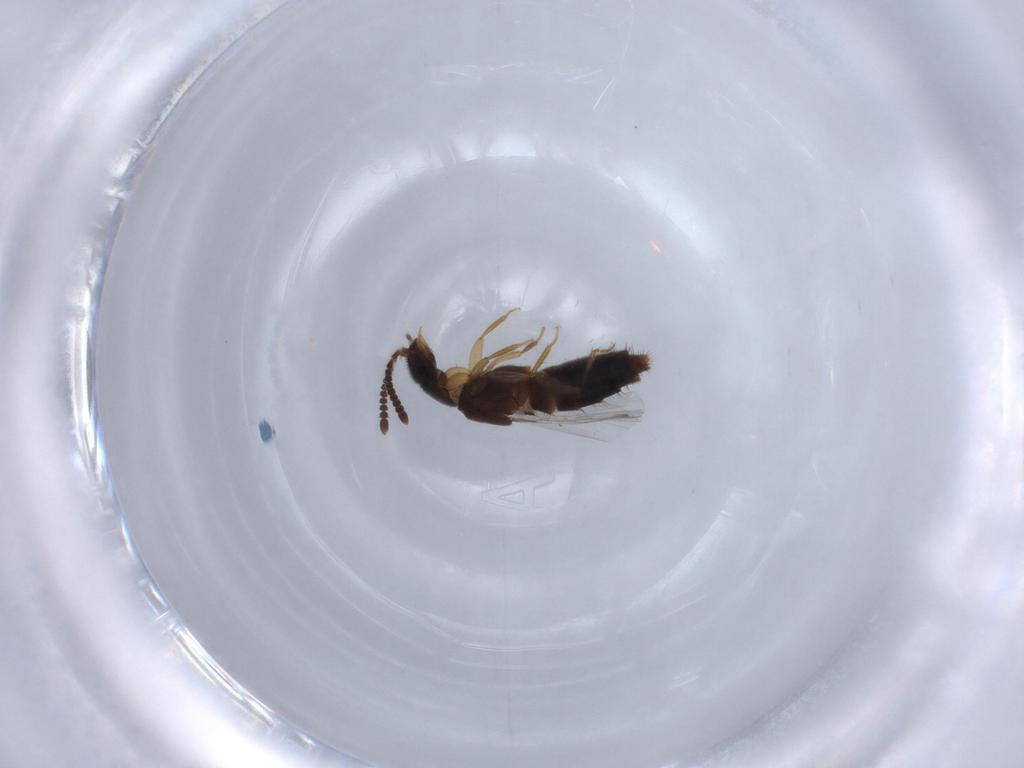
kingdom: Animalia
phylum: Arthropoda
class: Insecta
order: Coleoptera
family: Staphylinidae
